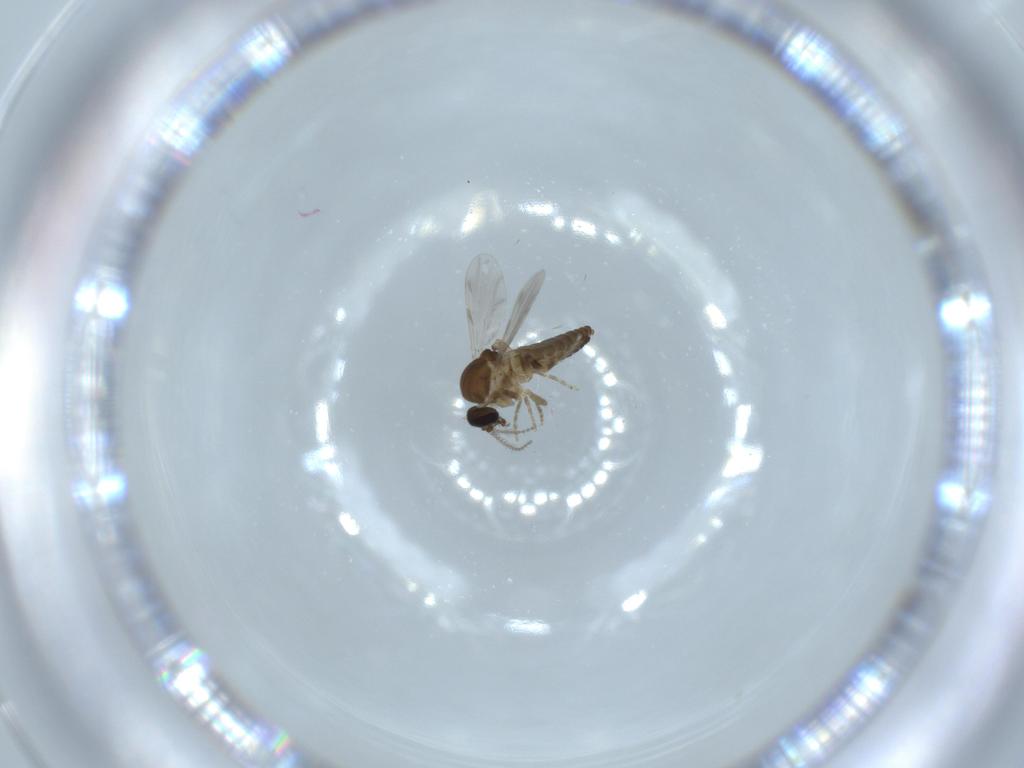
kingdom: Animalia
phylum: Arthropoda
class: Insecta
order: Diptera
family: Ceratopogonidae
